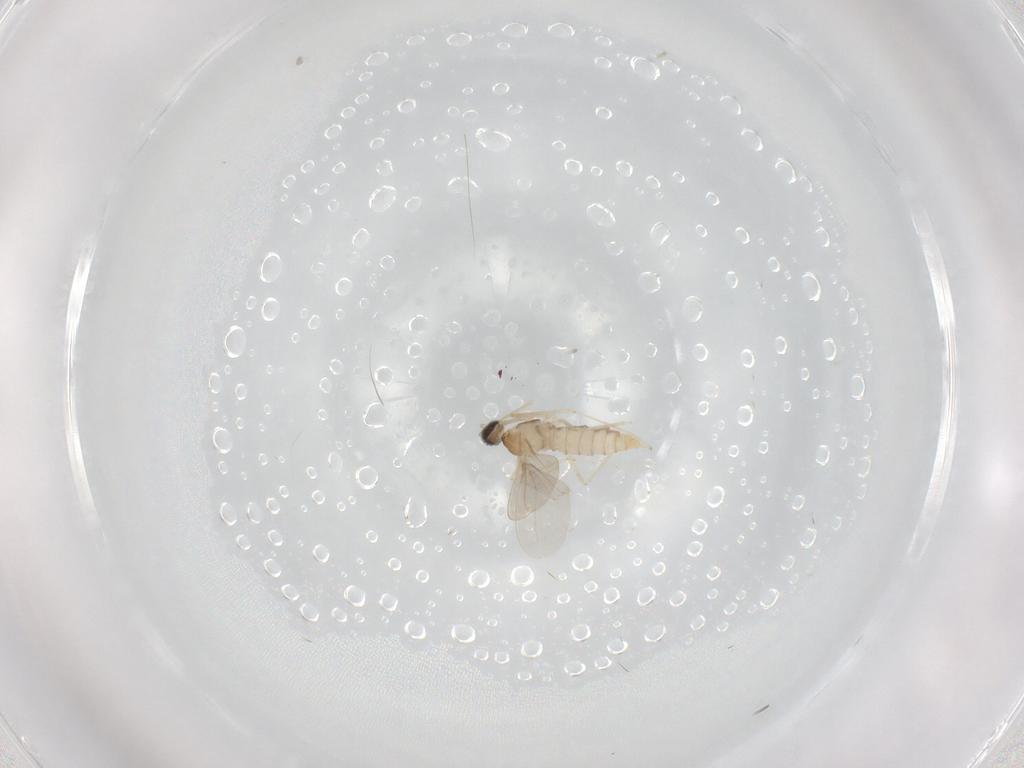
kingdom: Animalia
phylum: Arthropoda
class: Insecta
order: Diptera
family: Cecidomyiidae
